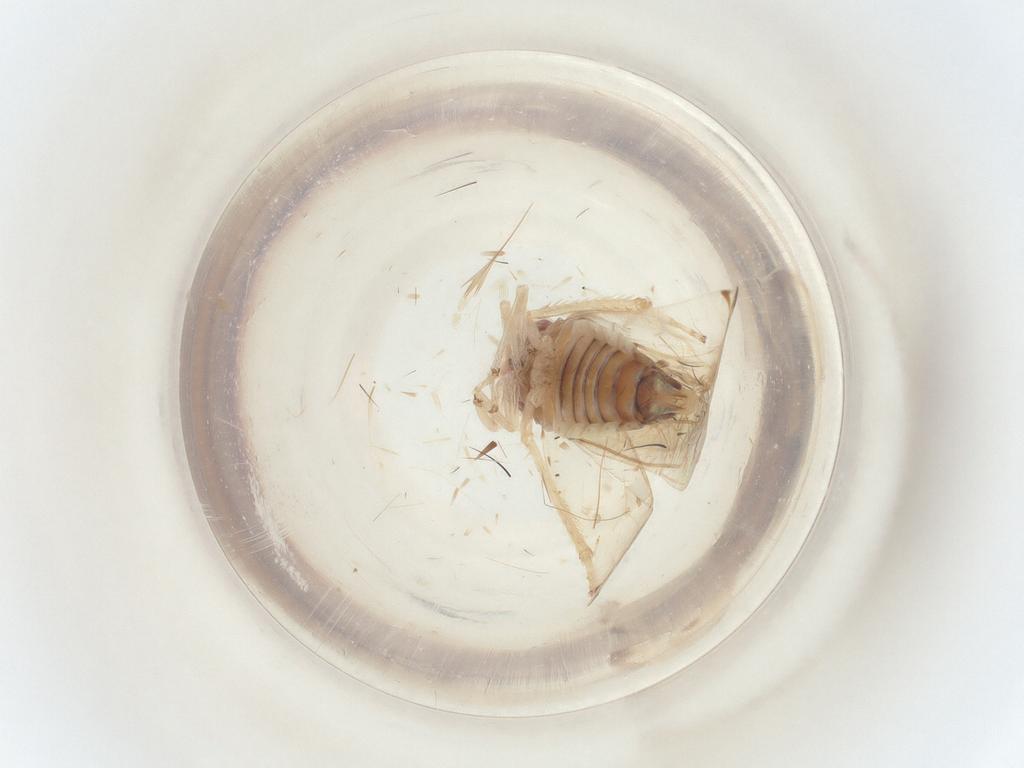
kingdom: Animalia
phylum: Arthropoda
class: Insecta
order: Hemiptera
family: Cicadellidae
